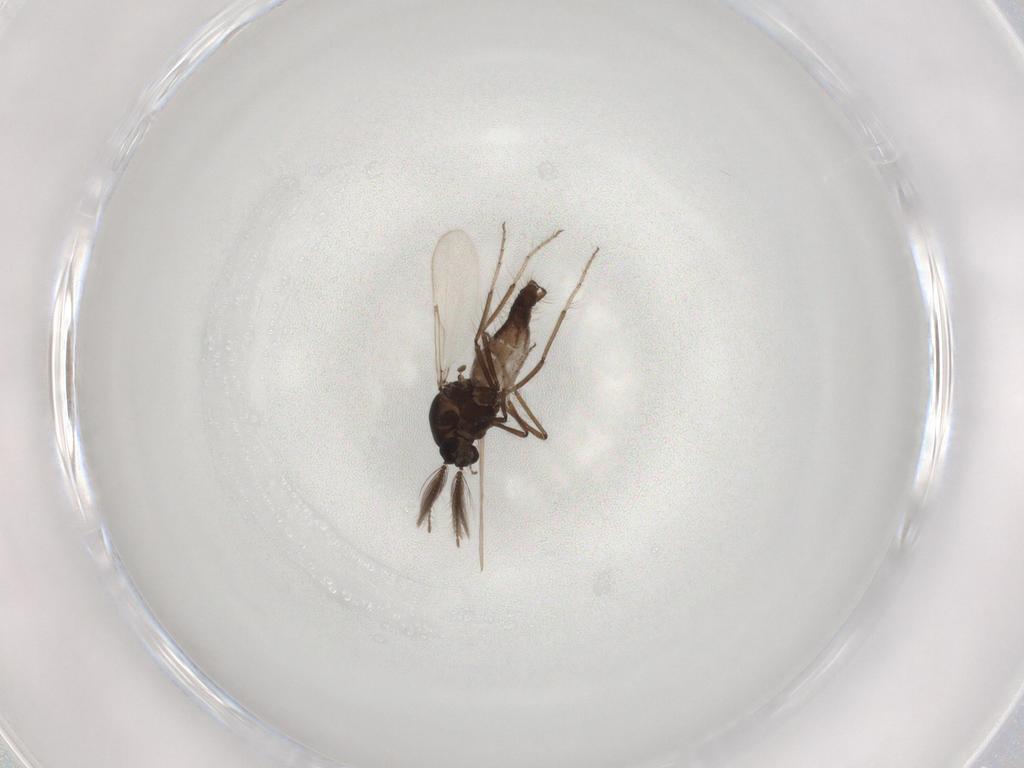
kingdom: Animalia
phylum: Arthropoda
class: Insecta
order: Diptera
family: Chironomidae
